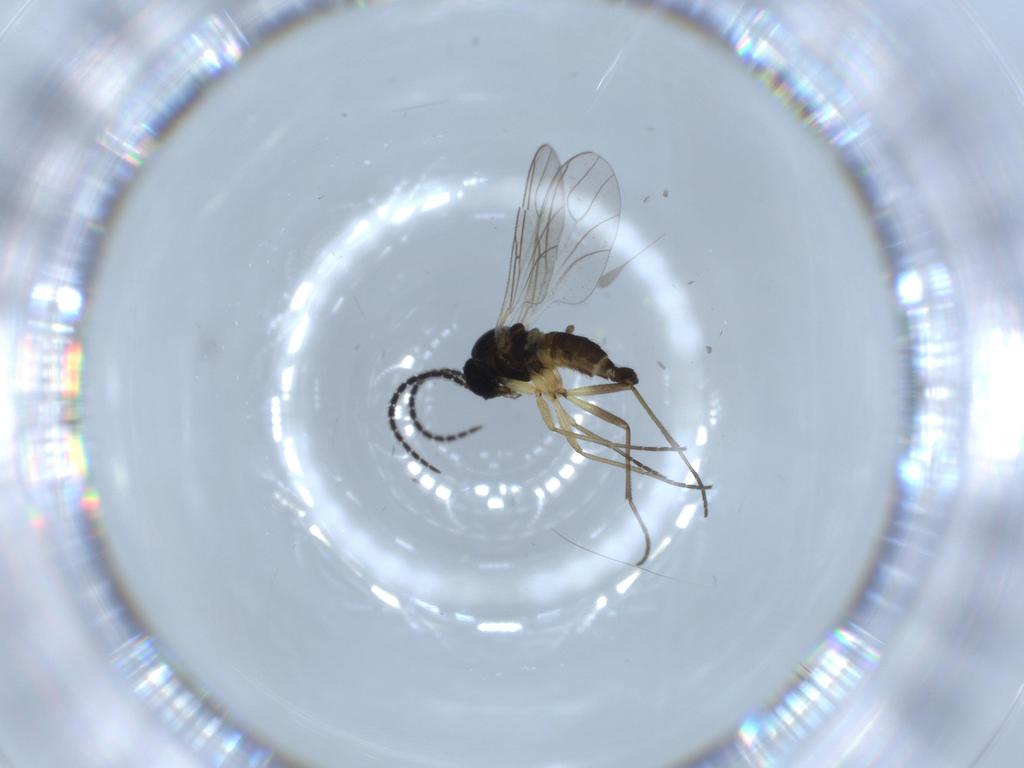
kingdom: Animalia
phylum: Arthropoda
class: Insecta
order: Diptera
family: Sciaridae
